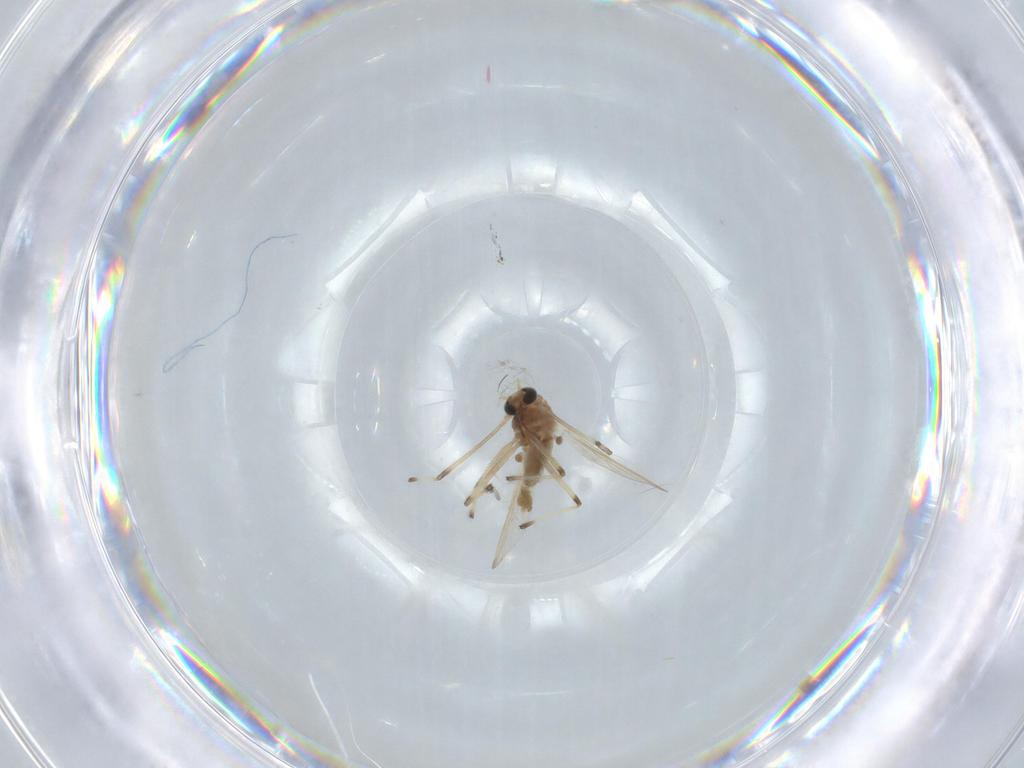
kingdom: Animalia
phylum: Arthropoda
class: Insecta
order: Diptera
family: Chironomidae
